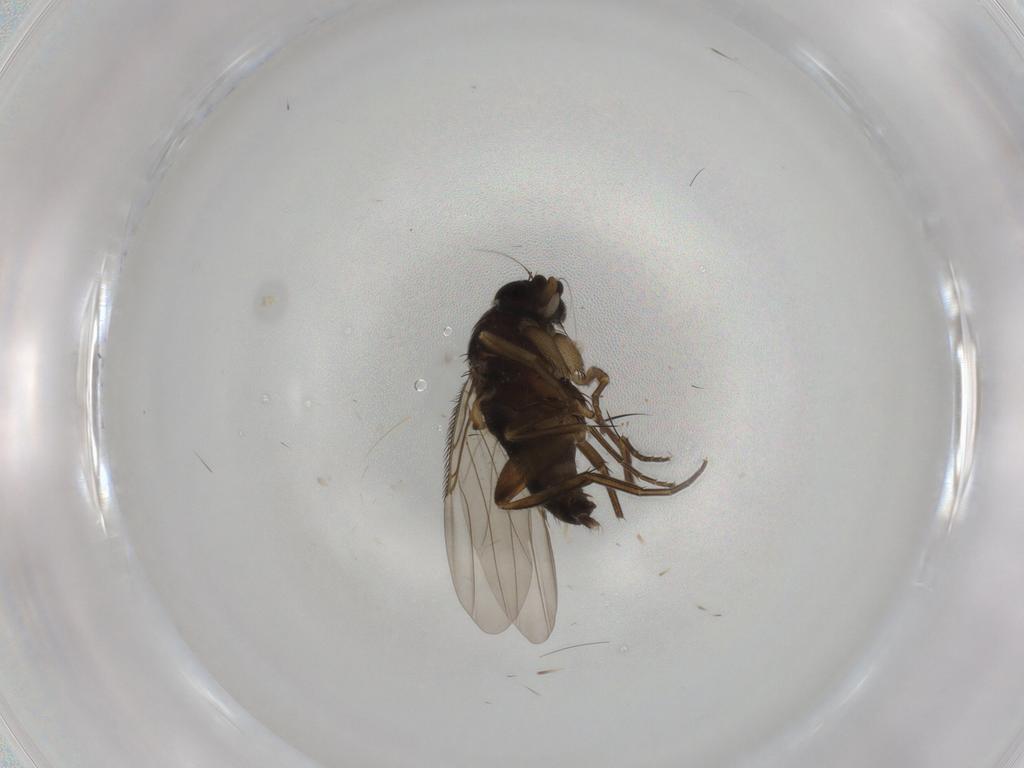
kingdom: Animalia
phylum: Arthropoda
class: Insecta
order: Diptera
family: Phoridae
